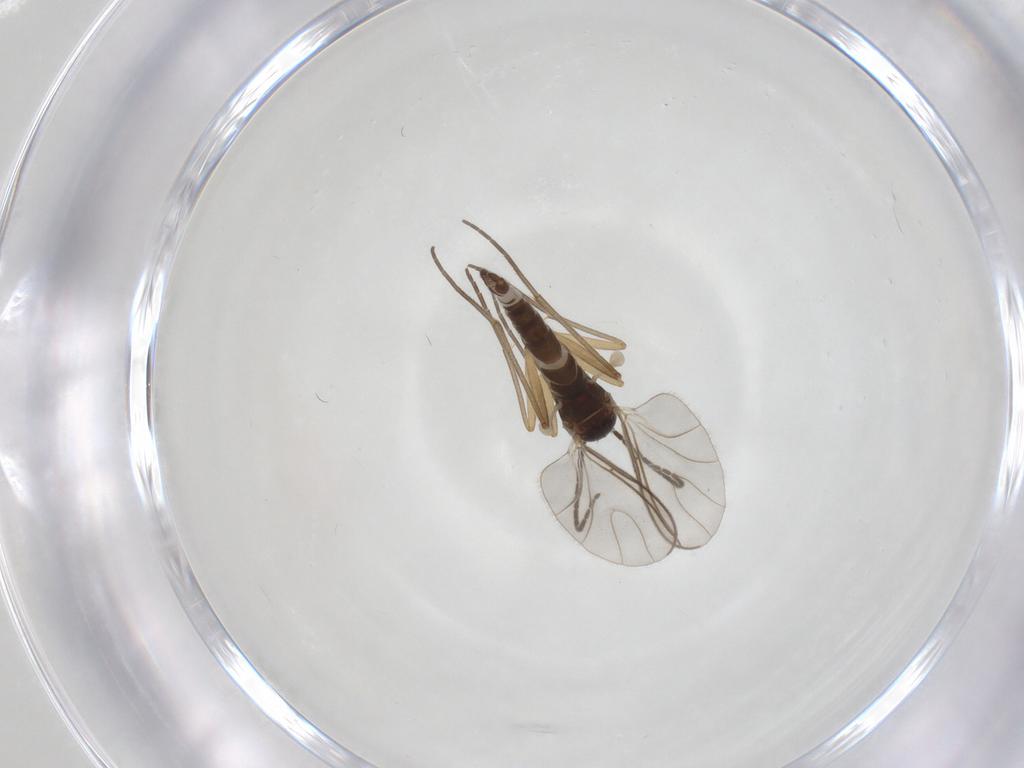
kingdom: Animalia
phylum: Arthropoda
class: Insecta
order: Diptera
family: Sciaridae
